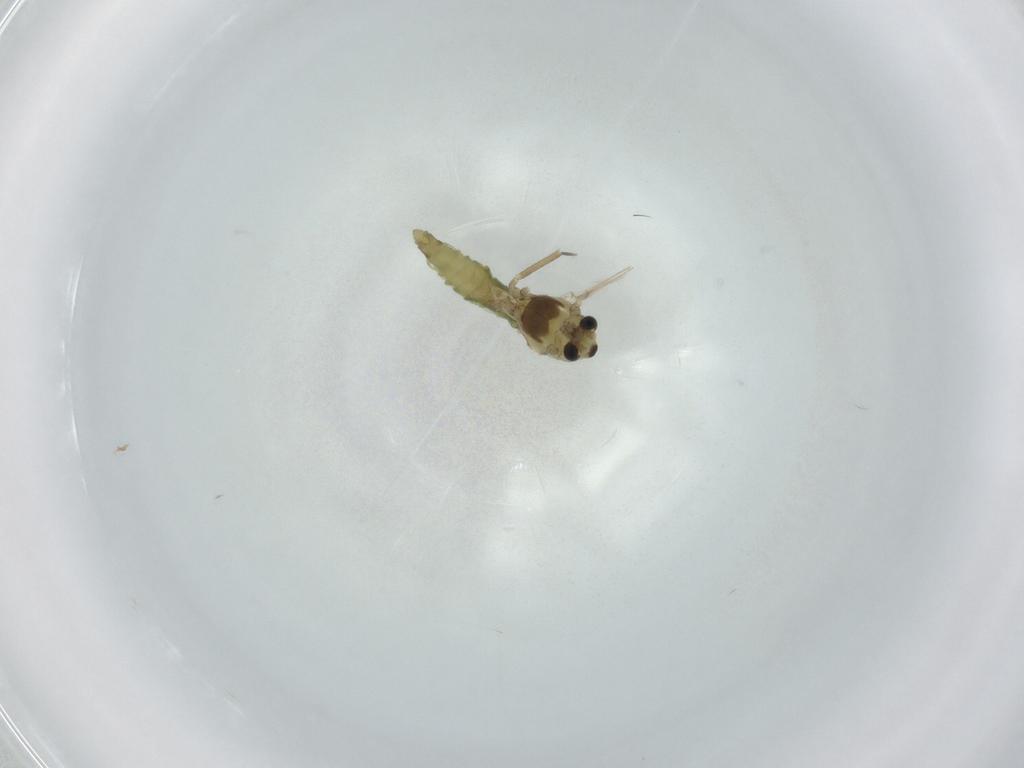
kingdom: Animalia
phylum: Arthropoda
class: Insecta
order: Diptera
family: Chironomidae
